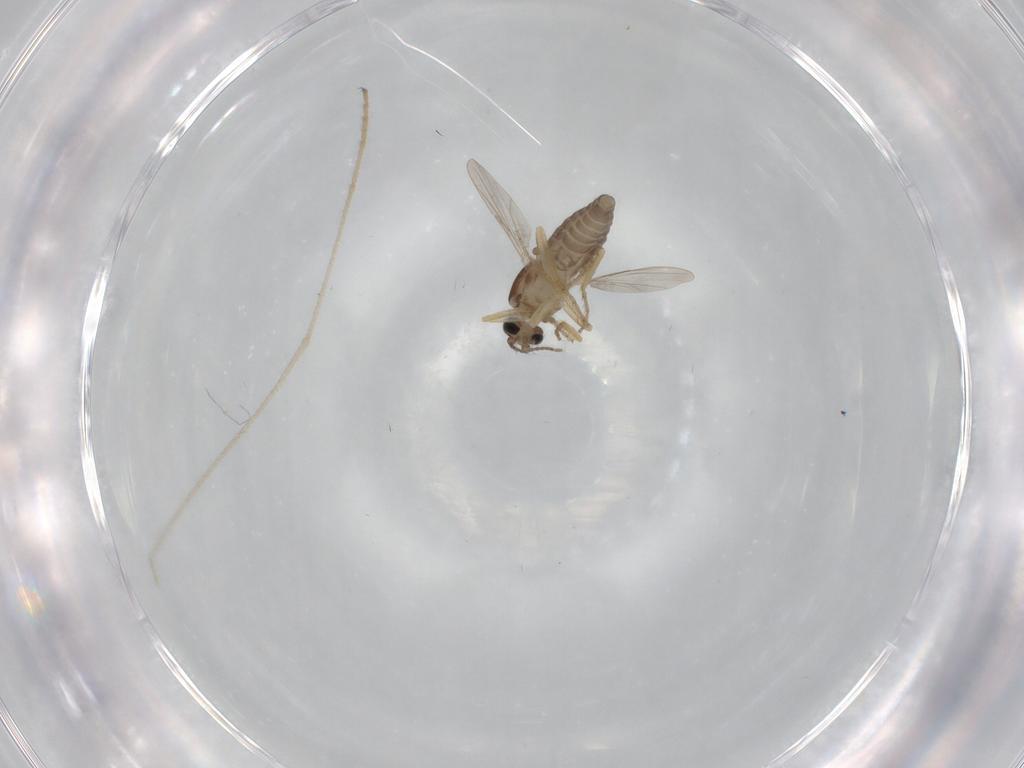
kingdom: Animalia
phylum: Arthropoda
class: Insecta
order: Diptera
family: Ceratopogonidae
